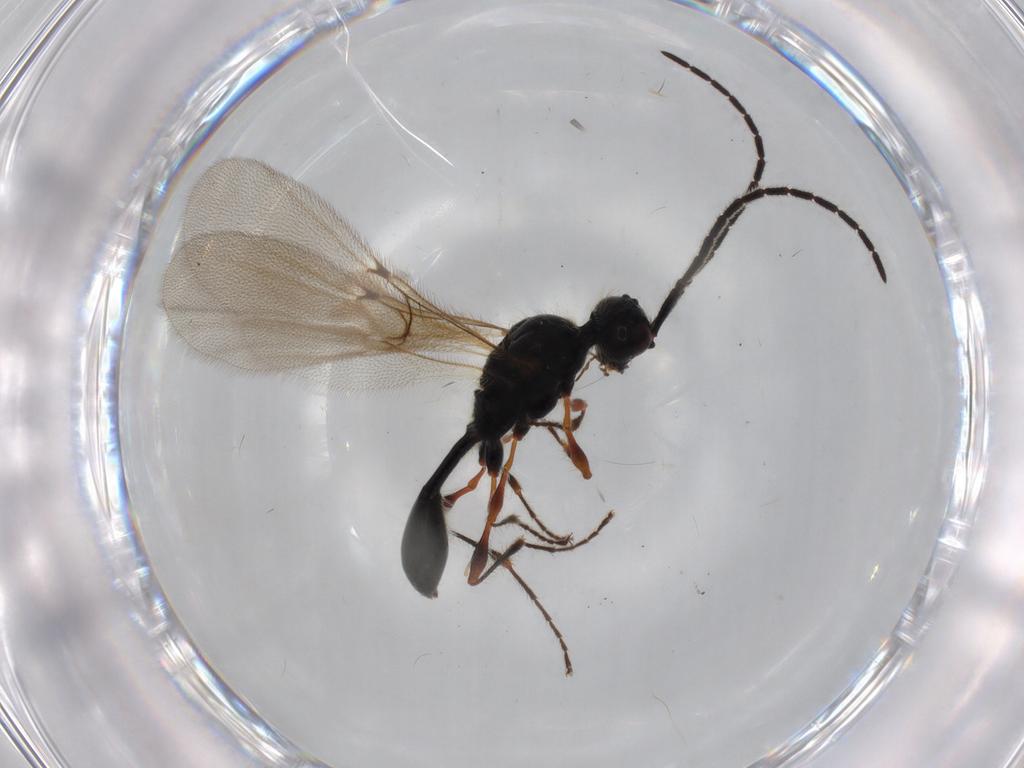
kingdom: Animalia
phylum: Arthropoda
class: Insecta
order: Hymenoptera
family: Diapriidae
